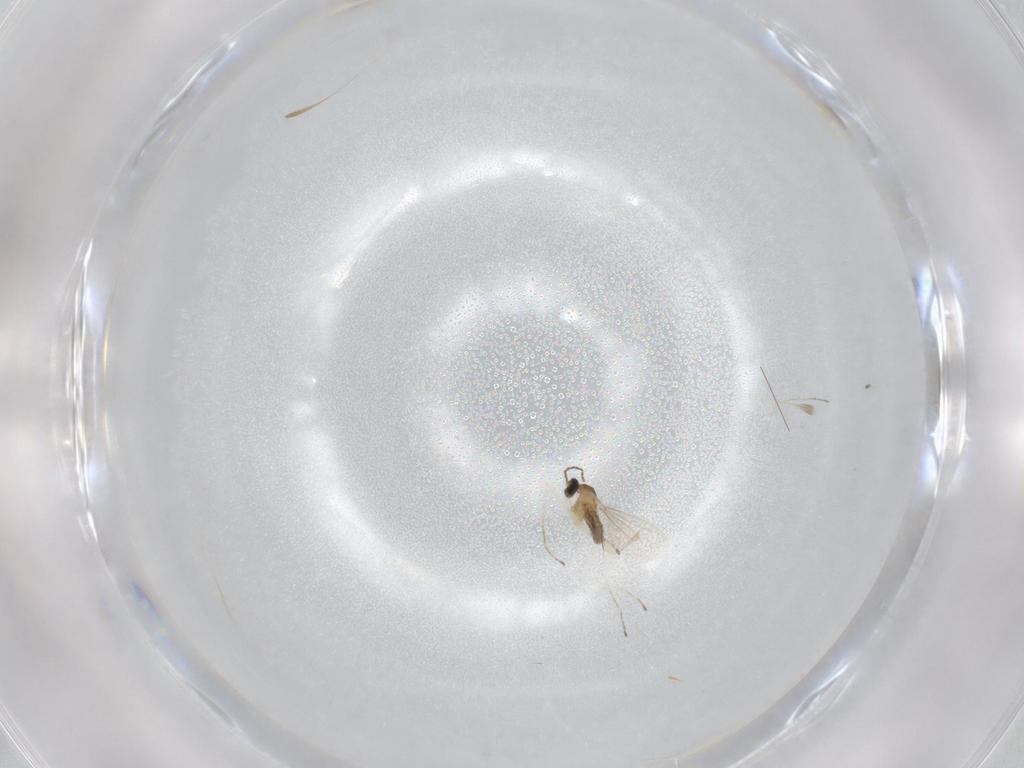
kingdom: Animalia
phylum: Arthropoda
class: Insecta
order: Diptera
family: Cecidomyiidae
